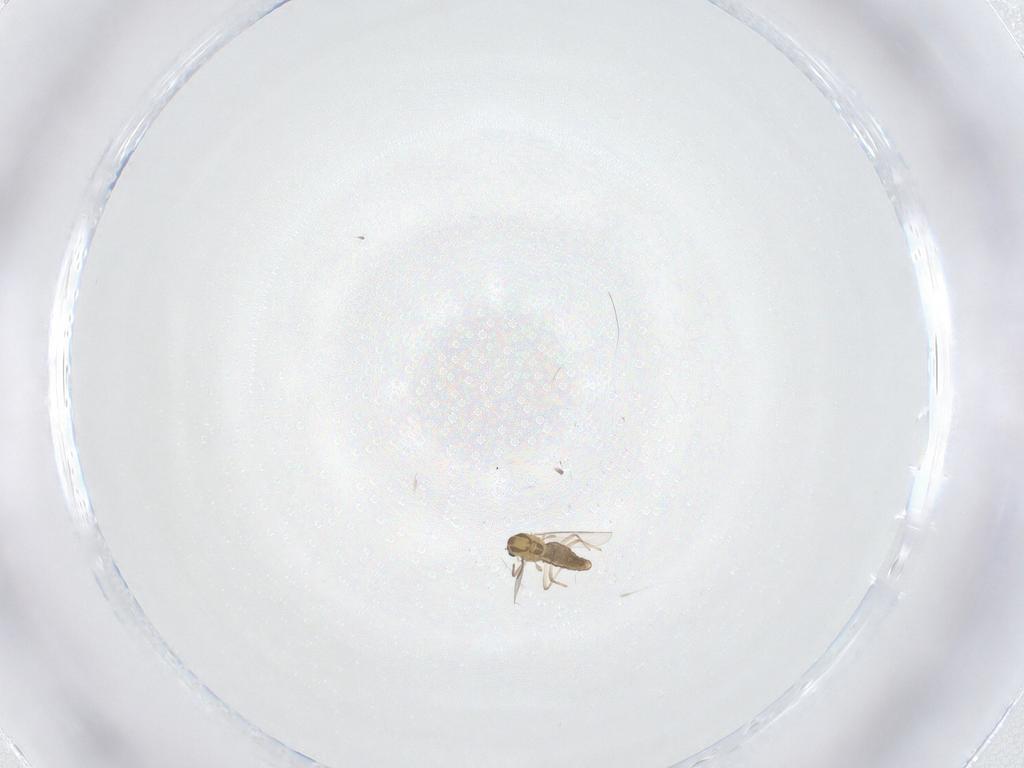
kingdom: Animalia
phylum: Arthropoda
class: Insecta
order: Diptera
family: Chironomidae
